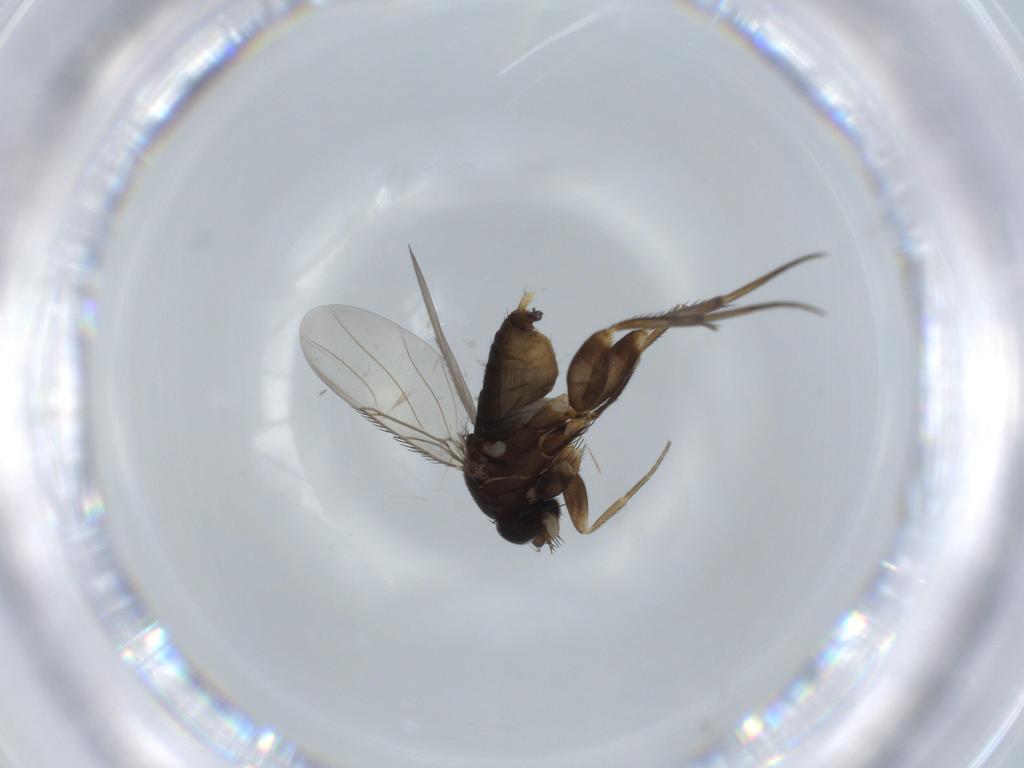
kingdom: Animalia
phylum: Arthropoda
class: Insecta
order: Diptera
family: Phoridae
